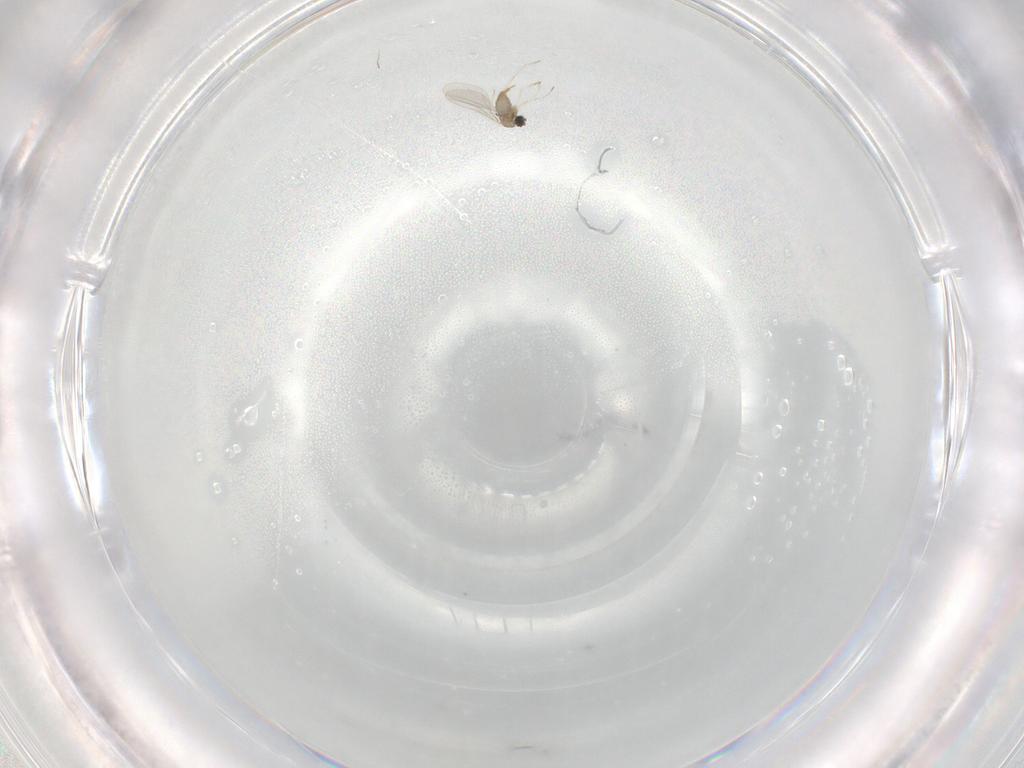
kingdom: Animalia
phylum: Arthropoda
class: Insecta
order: Diptera
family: Cecidomyiidae
